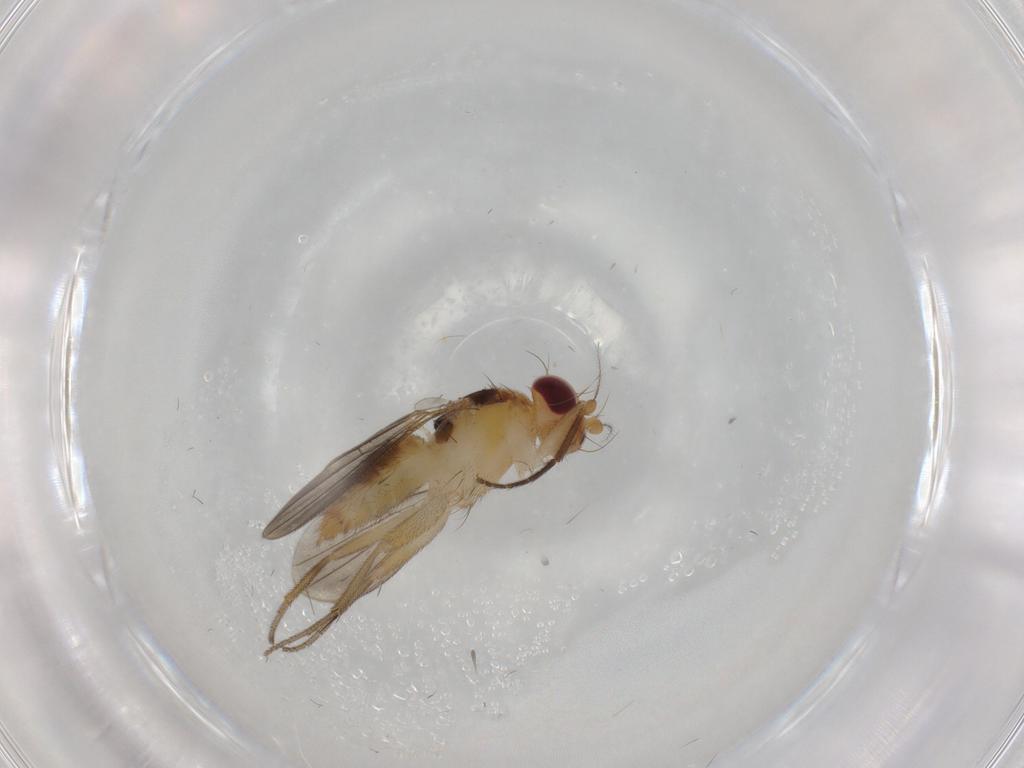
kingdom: Animalia
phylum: Arthropoda
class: Insecta
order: Diptera
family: Clusiidae
